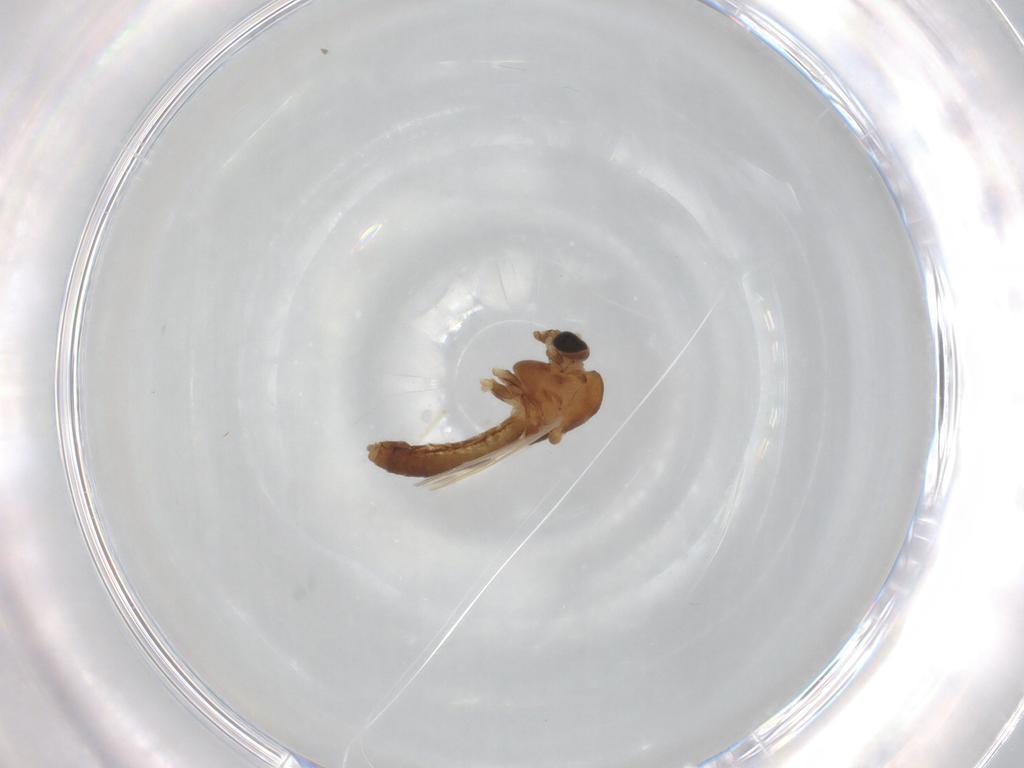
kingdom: Animalia
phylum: Arthropoda
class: Insecta
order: Diptera
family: Chironomidae
